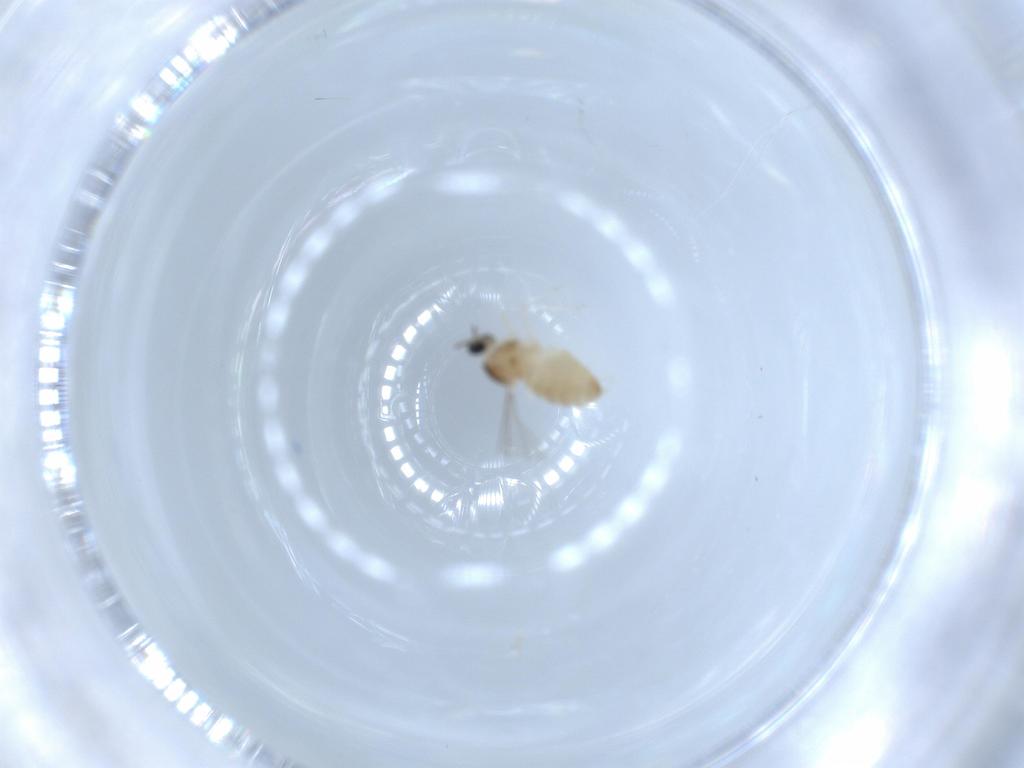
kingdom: Animalia
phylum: Arthropoda
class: Insecta
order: Diptera
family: Cecidomyiidae
